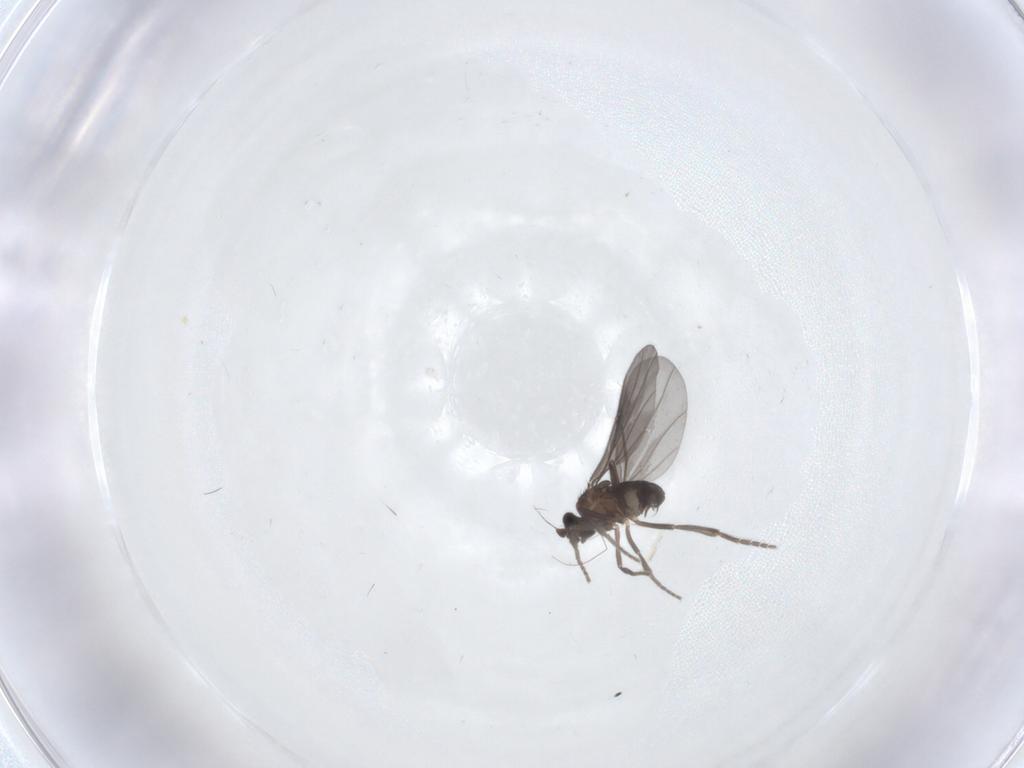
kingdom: Animalia
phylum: Arthropoda
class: Insecta
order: Diptera
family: Phoridae
